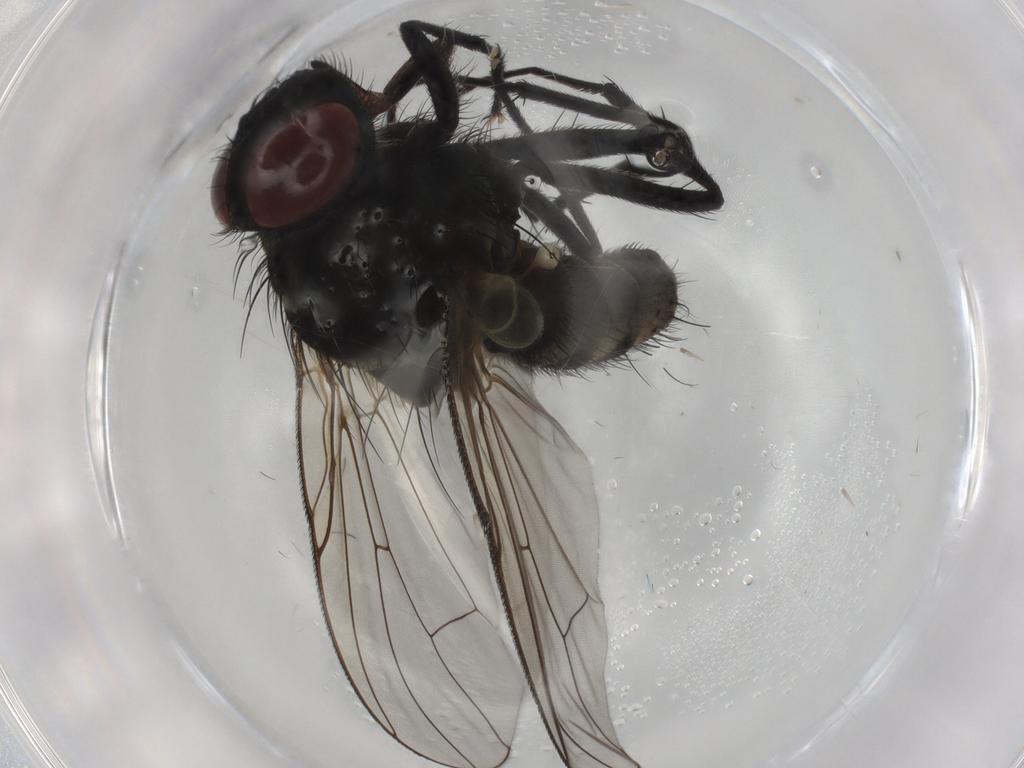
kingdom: Animalia
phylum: Arthropoda
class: Insecta
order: Diptera
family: Muscidae
